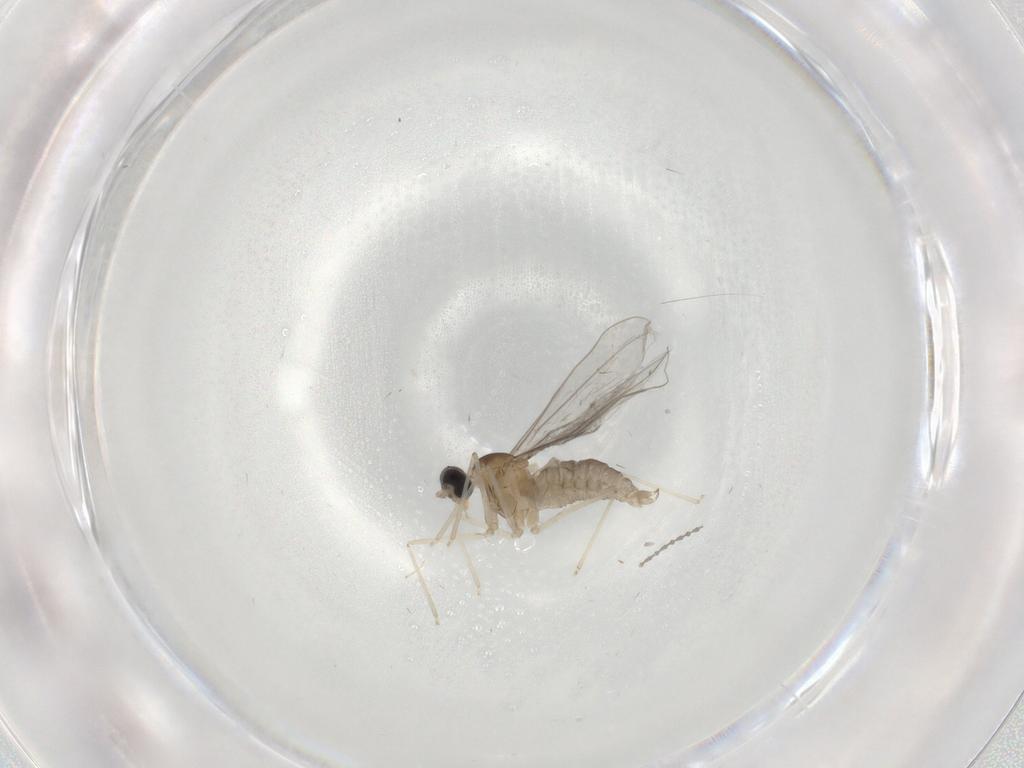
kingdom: Animalia
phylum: Arthropoda
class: Insecta
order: Diptera
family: Cecidomyiidae
